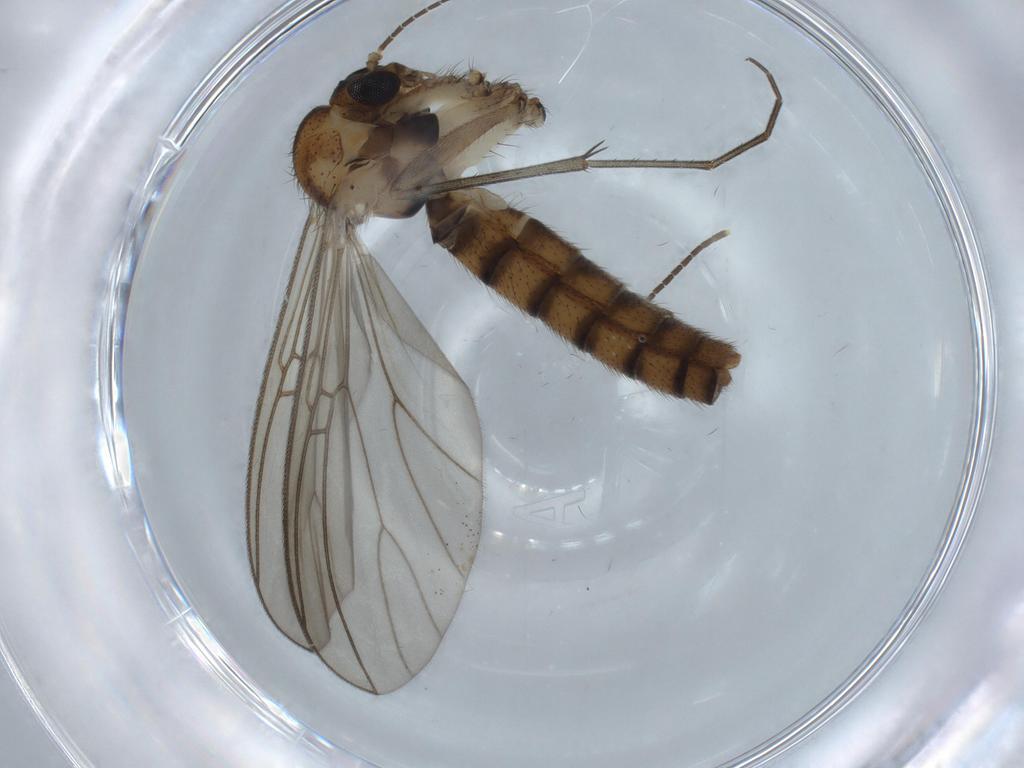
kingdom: Animalia
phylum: Arthropoda
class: Insecta
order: Diptera
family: Mycetophilidae
